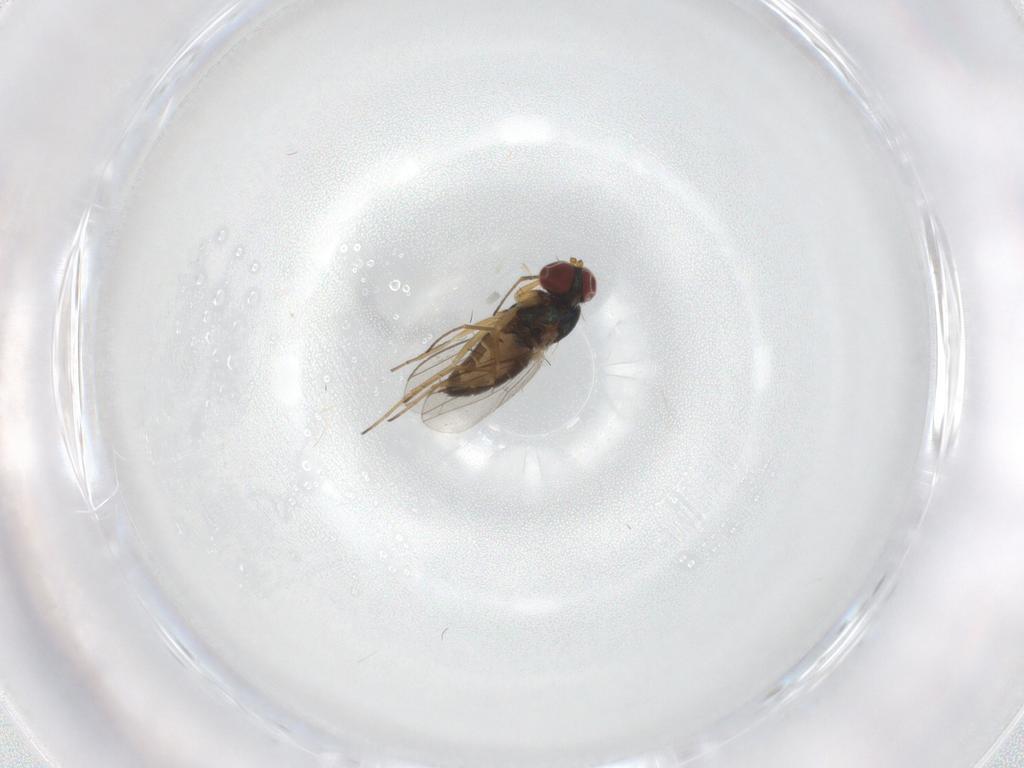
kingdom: Animalia
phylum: Arthropoda
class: Insecta
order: Diptera
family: Dolichopodidae
